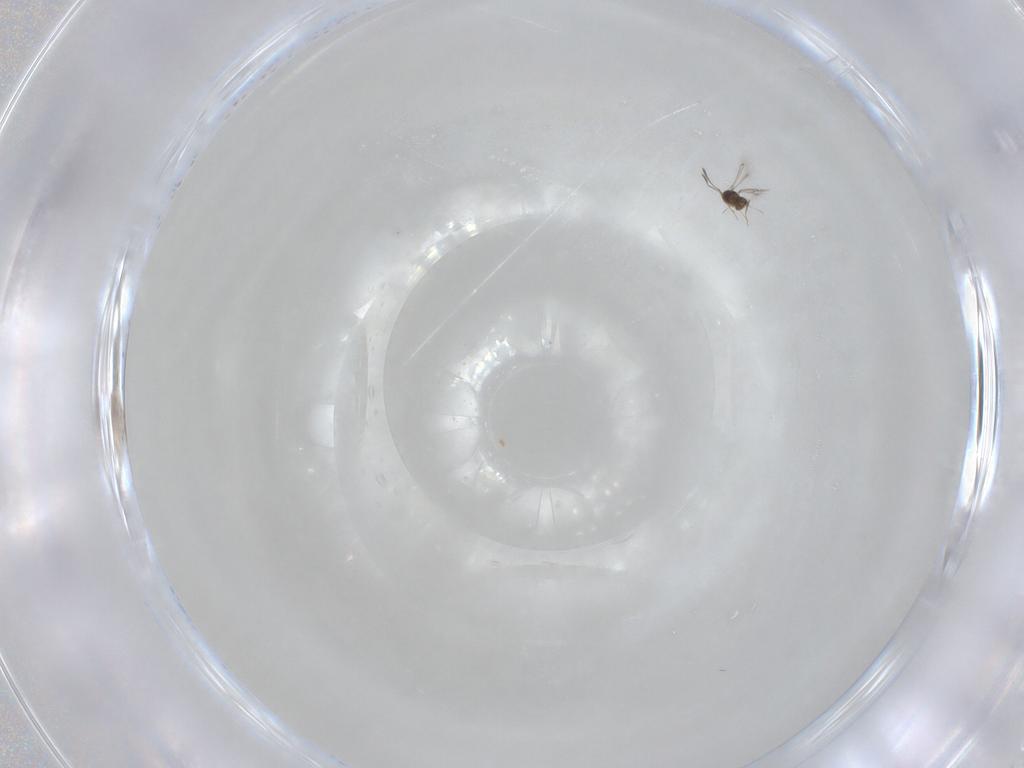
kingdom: Animalia
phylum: Arthropoda
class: Insecta
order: Hymenoptera
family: Mymaridae
